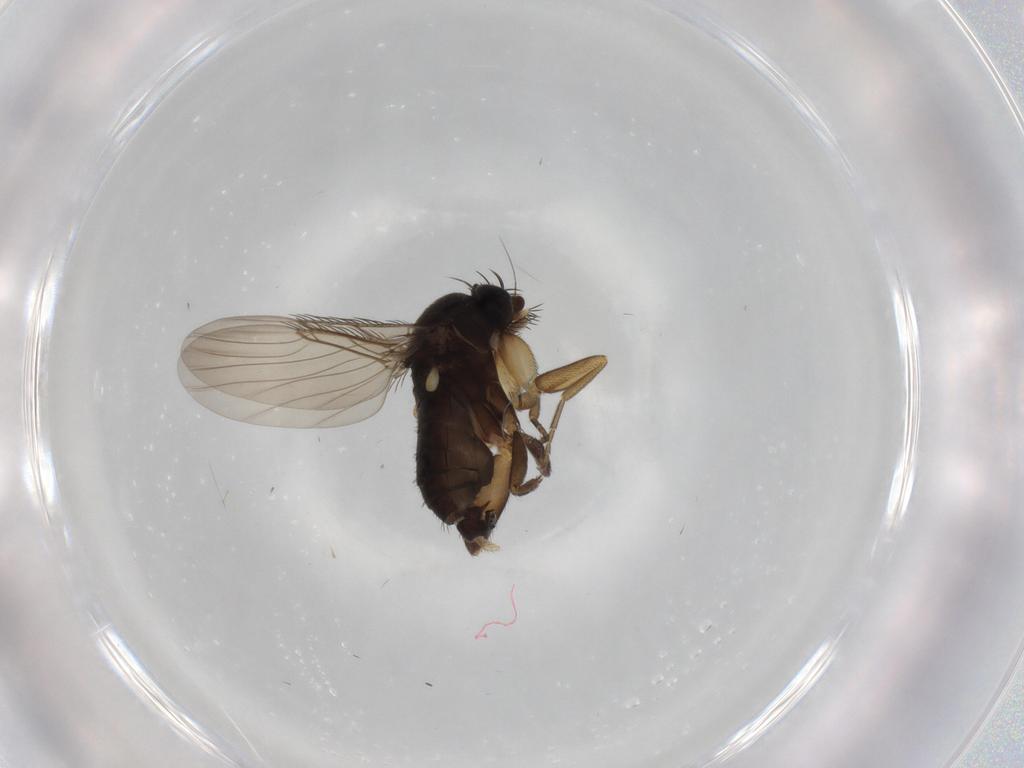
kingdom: Animalia
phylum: Arthropoda
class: Insecta
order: Diptera
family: Phoridae
